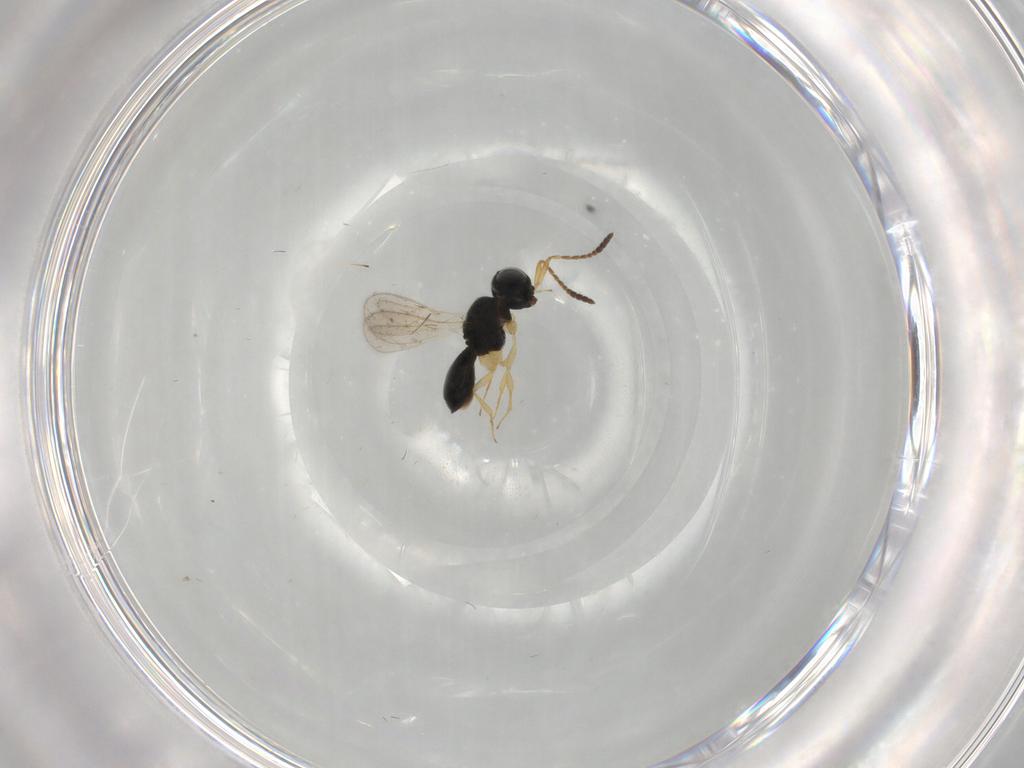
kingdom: Animalia
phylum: Arthropoda
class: Insecta
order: Hymenoptera
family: Scelionidae
